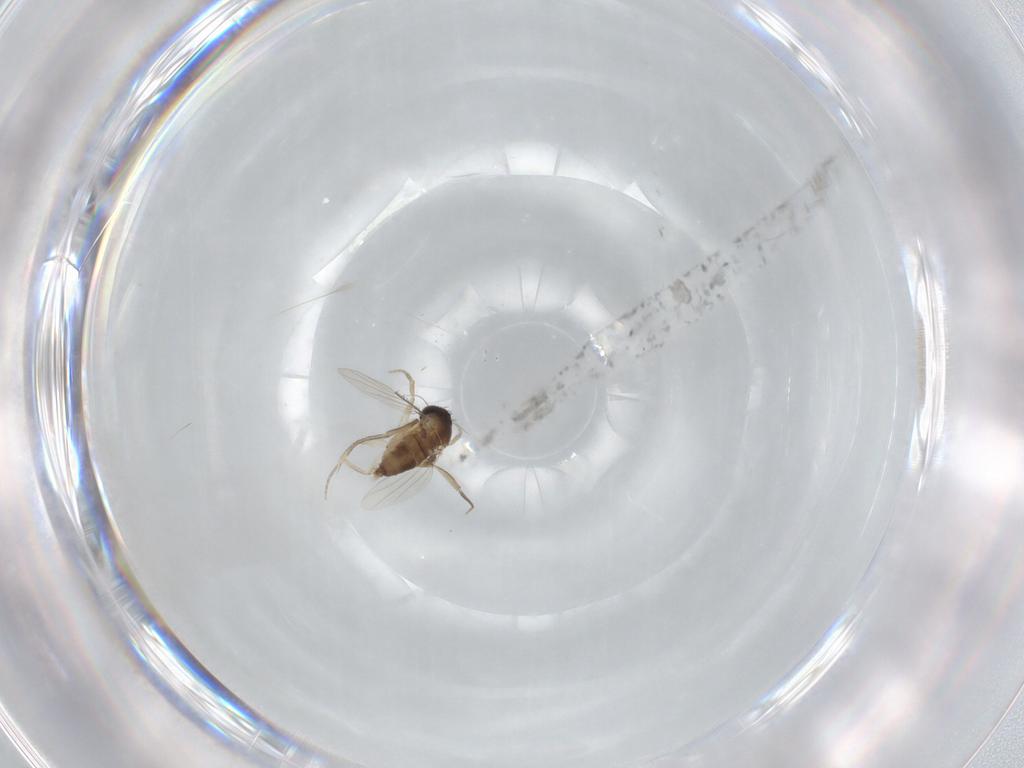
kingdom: Animalia
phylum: Arthropoda
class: Insecta
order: Diptera
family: Phoridae
